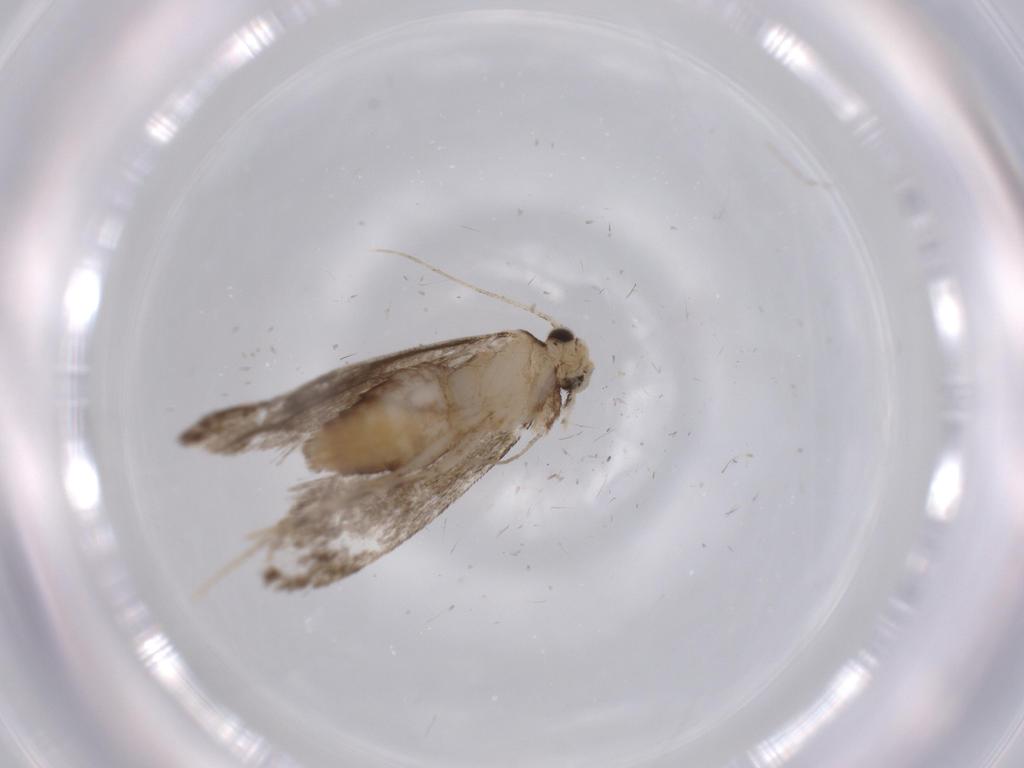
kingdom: Animalia
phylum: Arthropoda
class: Insecta
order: Lepidoptera
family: Tineidae
